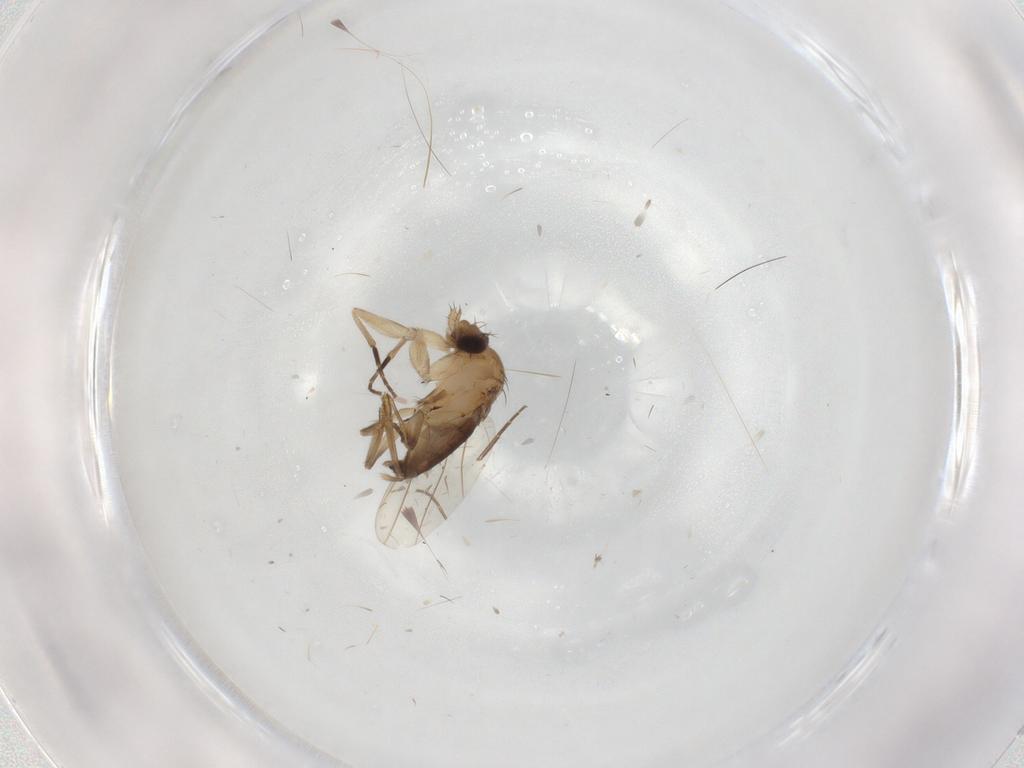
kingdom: Animalia
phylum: Arthropoda
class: Insecta
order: Diptera
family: Phoridae
